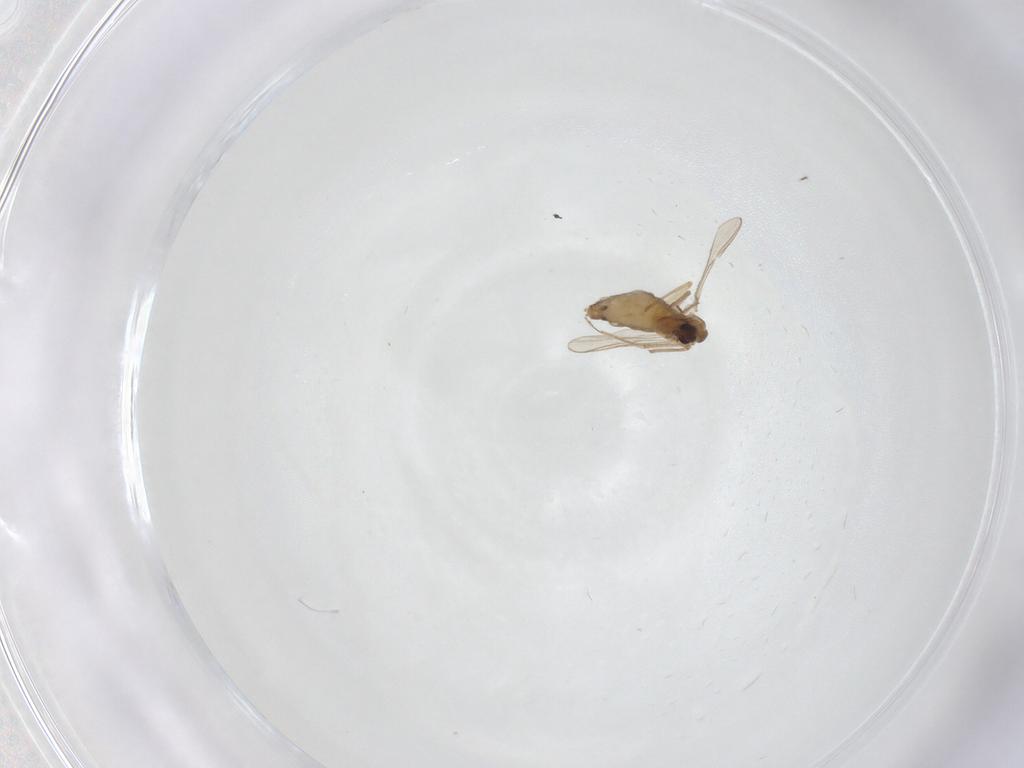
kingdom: Animalia
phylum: Arthropoda
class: Insecta
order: Diptera
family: Chironomidae
